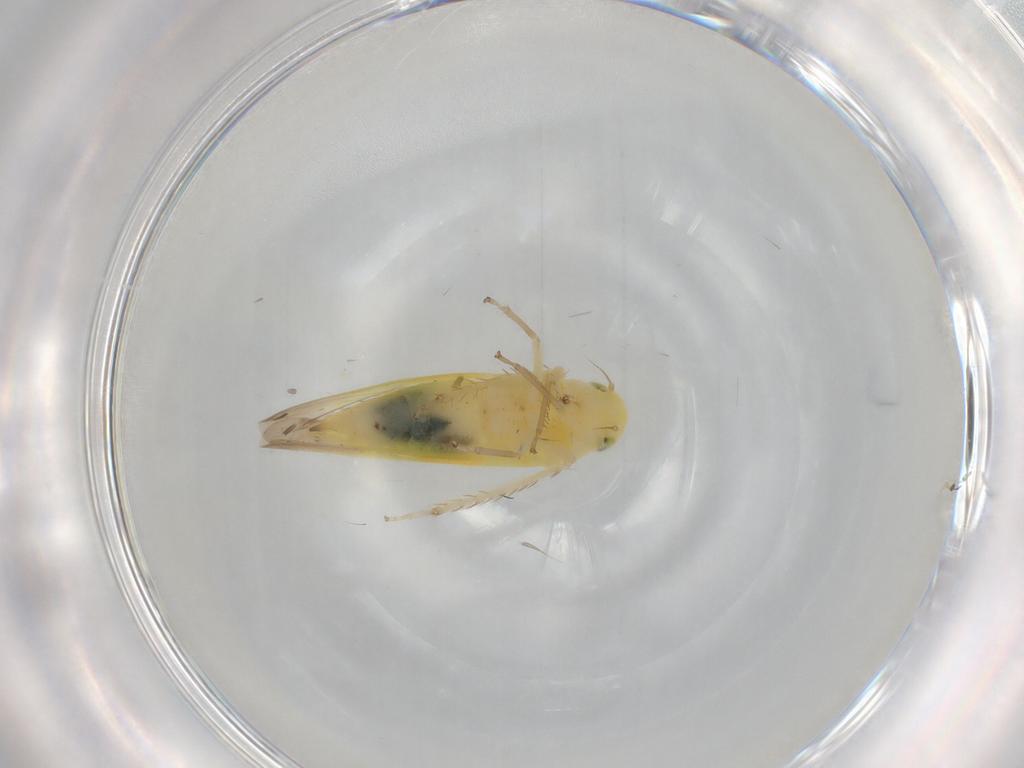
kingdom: Animalia
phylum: Arthropoda
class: Insecta
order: Hemiptera
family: Cicadellidae
